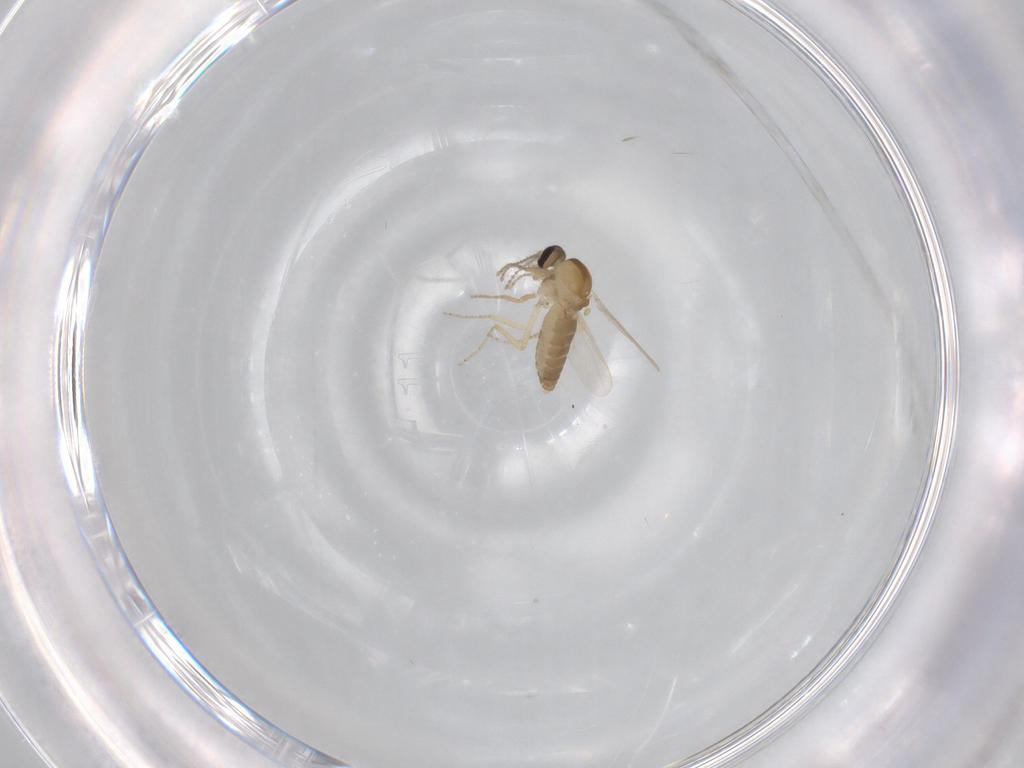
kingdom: Animalia
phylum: Arthropoda
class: Insecta
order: Diptera
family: Ceratopogonidae
